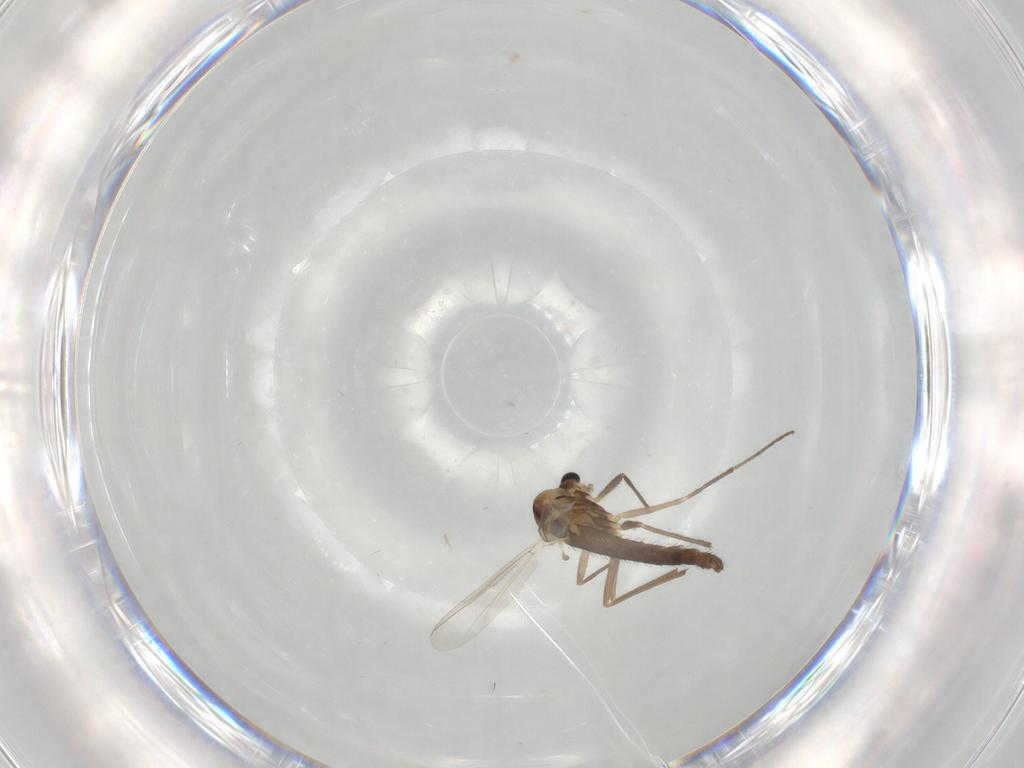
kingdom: Animalia
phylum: Arthropoda
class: Insecta
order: Diptera
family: Chironomidae
